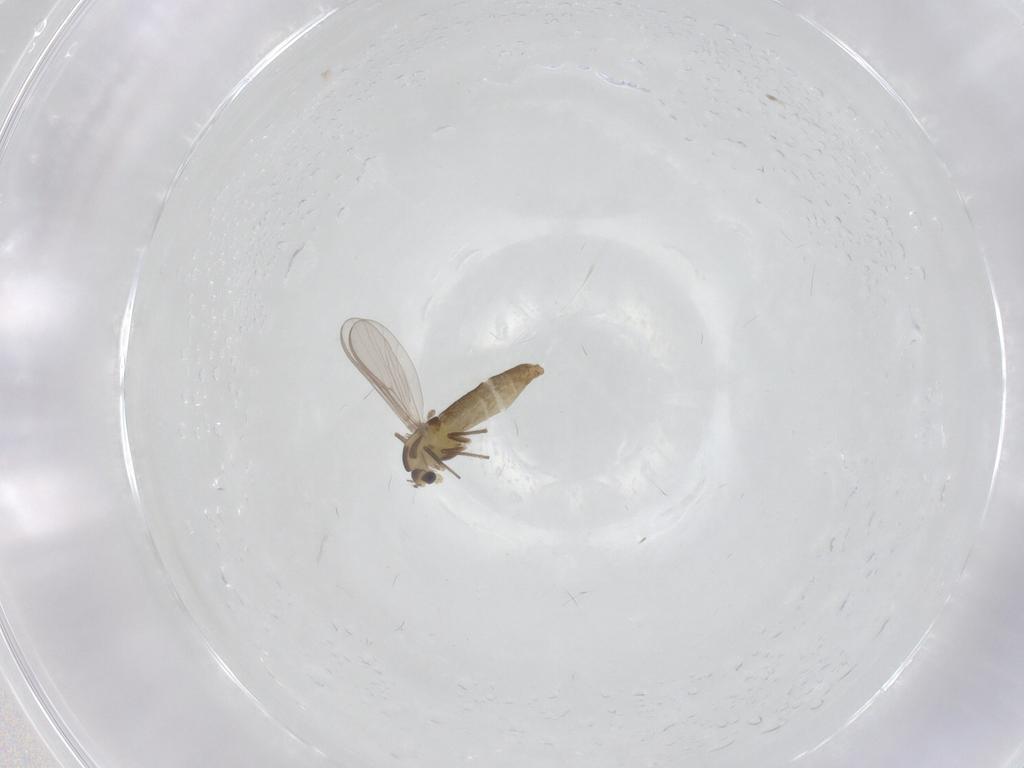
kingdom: Animalia
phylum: Arthropoda
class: Insecta
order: Diptera
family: Chironomidae
